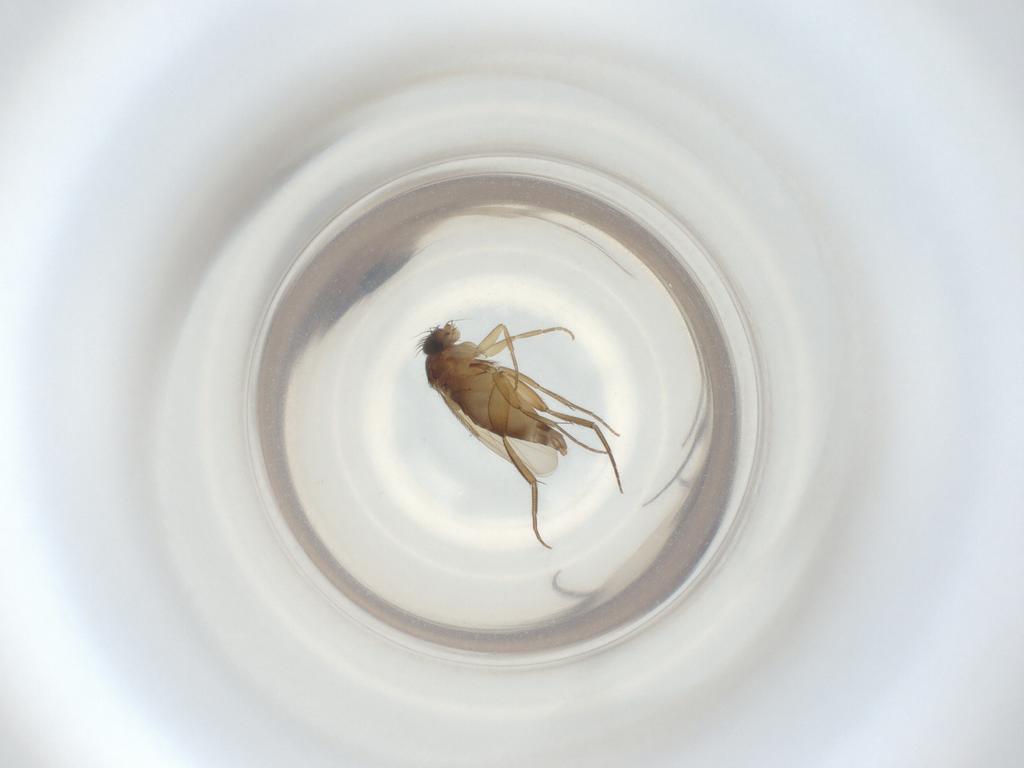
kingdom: Animalia
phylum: Arthropoda
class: Insecta
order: Diptera
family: Phoridae
